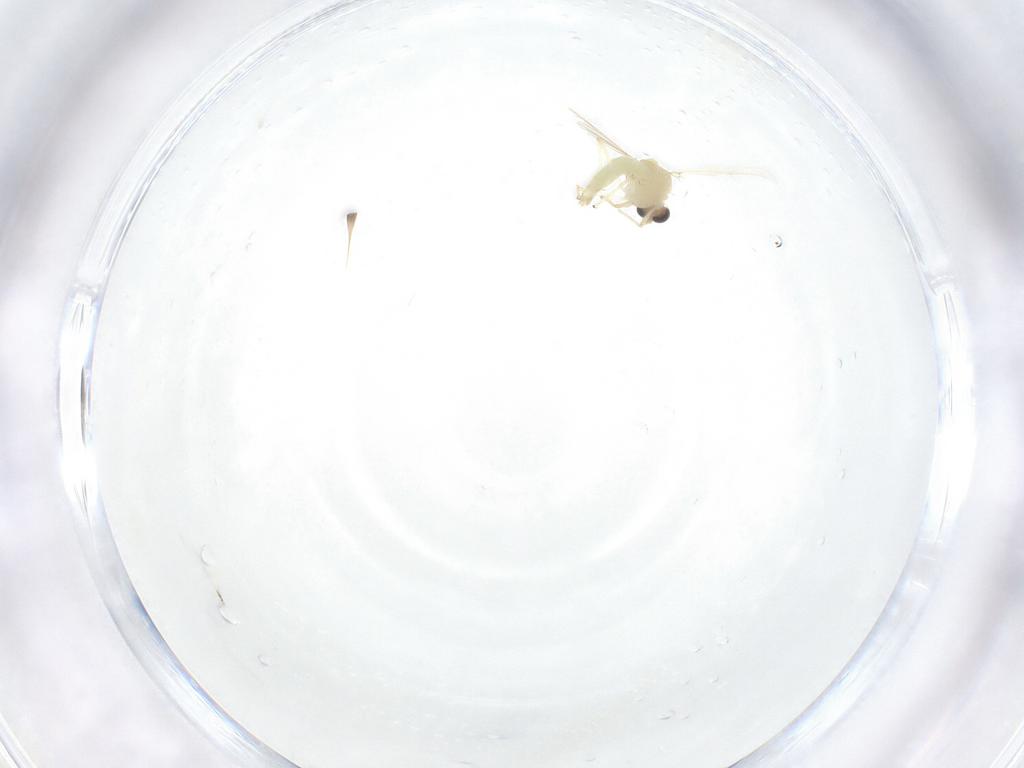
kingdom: Animalia
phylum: Arthropoda
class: Insecta
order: Diptera
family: Chironomidae
